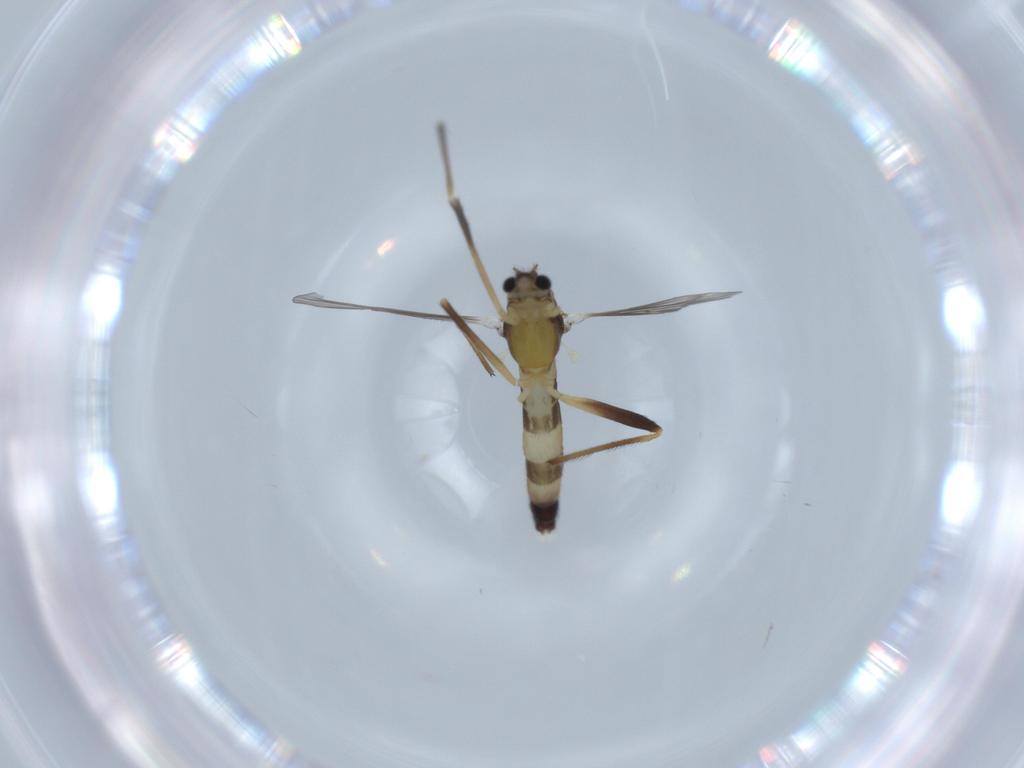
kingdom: Animalia
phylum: Arthropoda
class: Insecta
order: Diptera
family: Chironomidae
